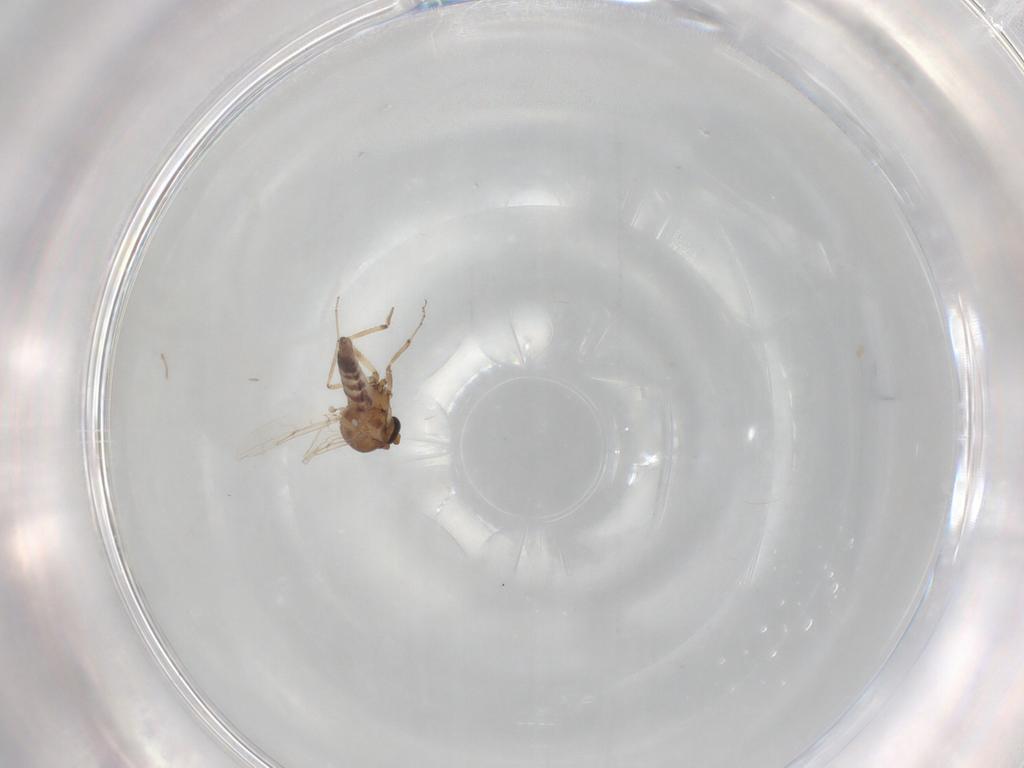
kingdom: Animalia
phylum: Arthropoda
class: Insecta
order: Diptera
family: Ceratopogonidae
